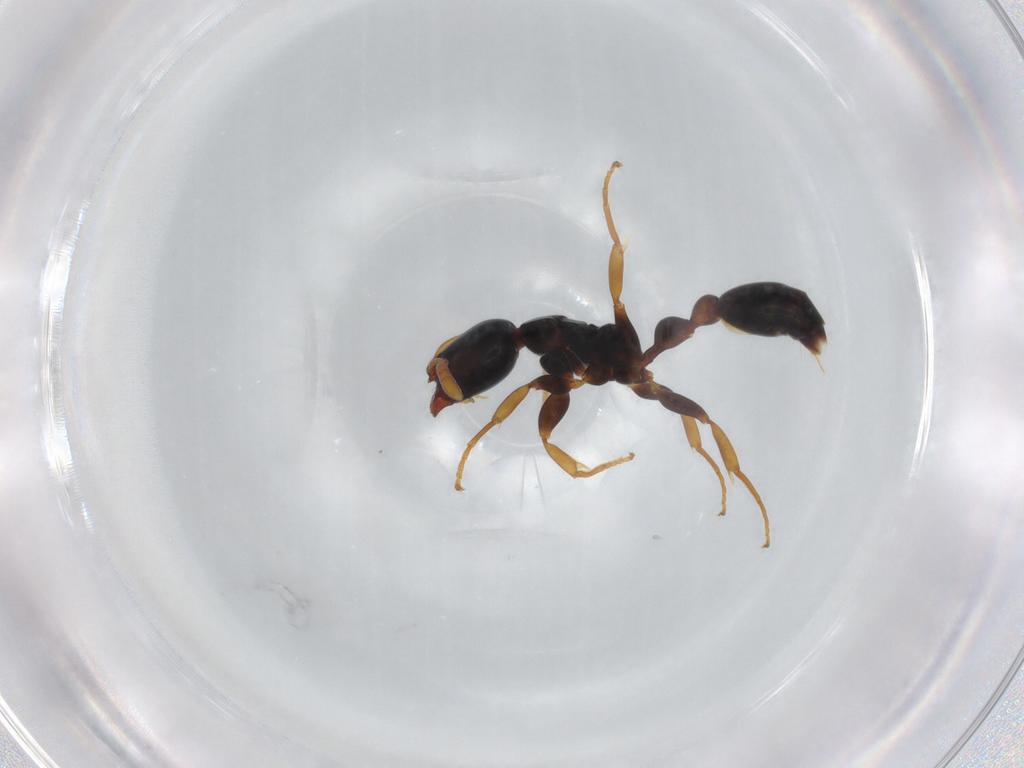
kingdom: Animalia
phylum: Arthropoda
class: Insecta
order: Hymenoptera
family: Formicidae
